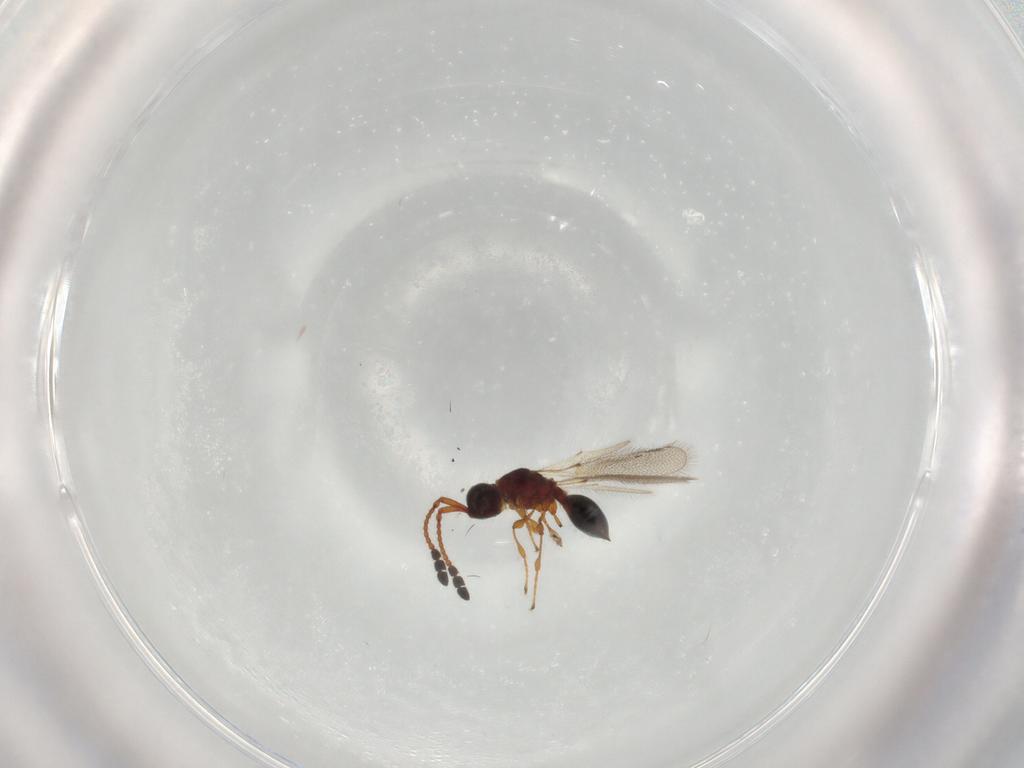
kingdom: Animalia
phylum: Arthropoda
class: Insecta
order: Hymenoptera
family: Diapriidae
